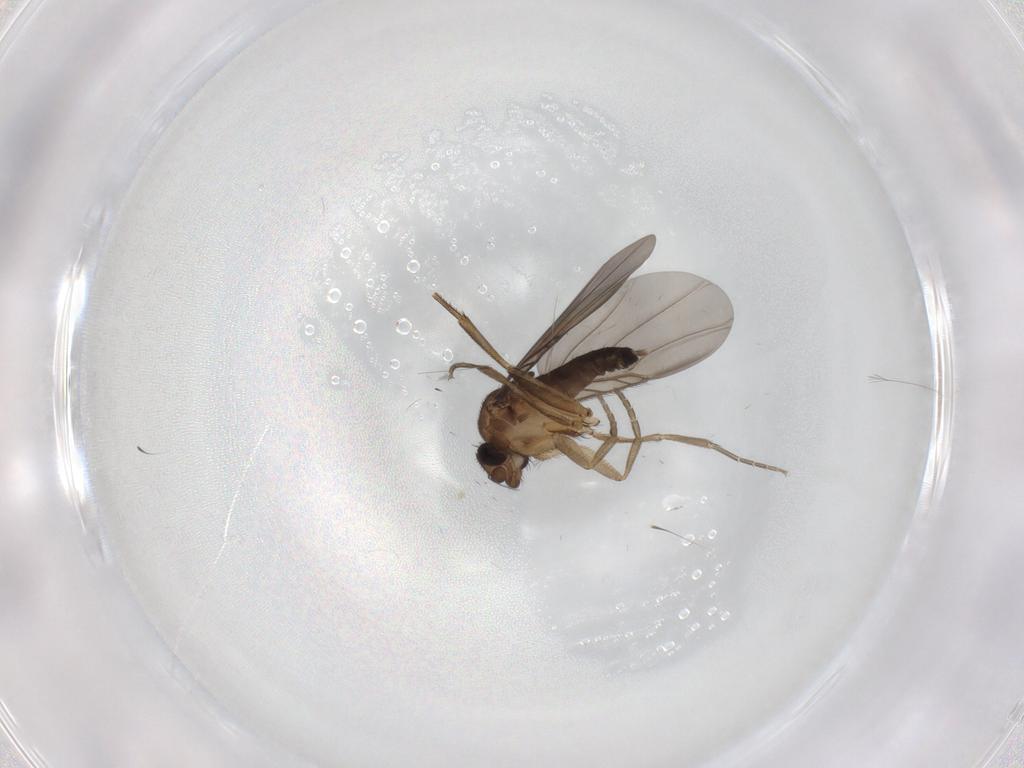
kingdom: Animalia
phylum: Arthropoda
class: Insecta
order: Diptera
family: Phoridae
